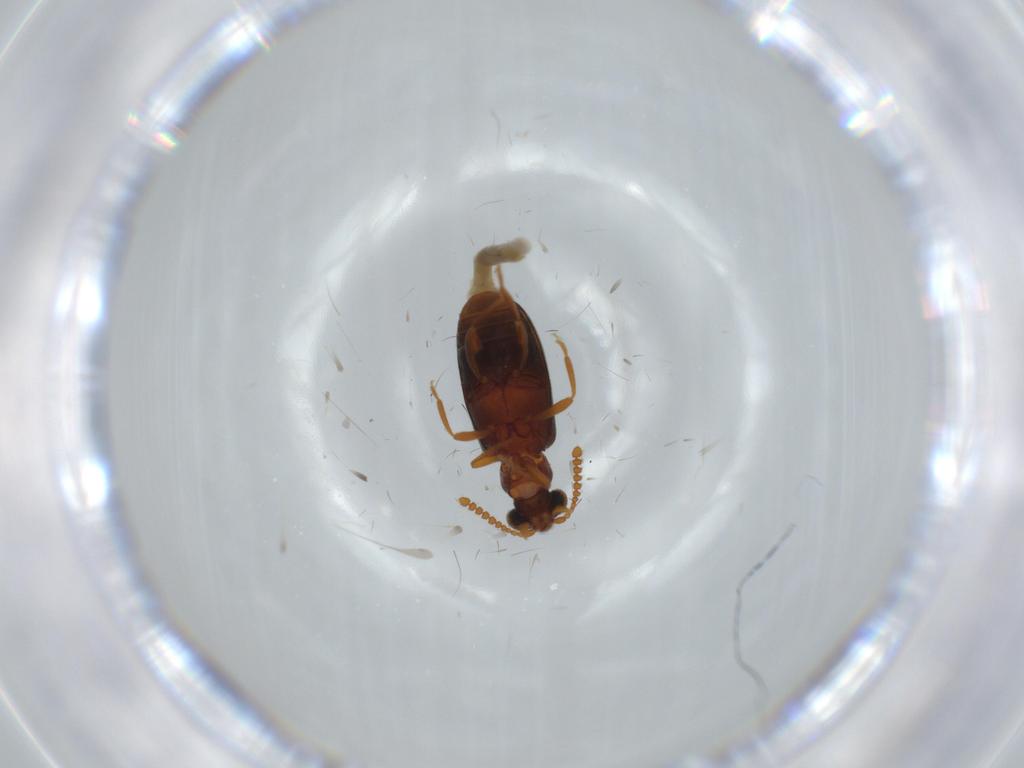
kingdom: Animalia
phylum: Arthropoda
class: Insecta
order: Coleoptera
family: Aderidae
